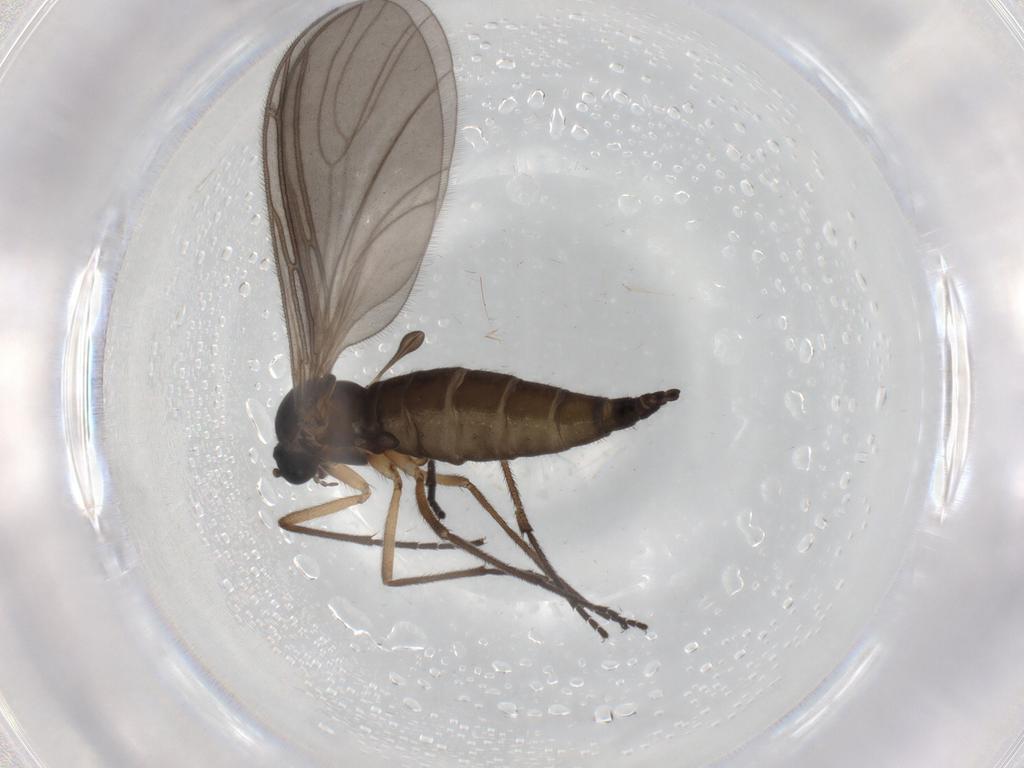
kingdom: Animalia
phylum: Arthropoda
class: Insecta
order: Diptera
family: Sciaridae
